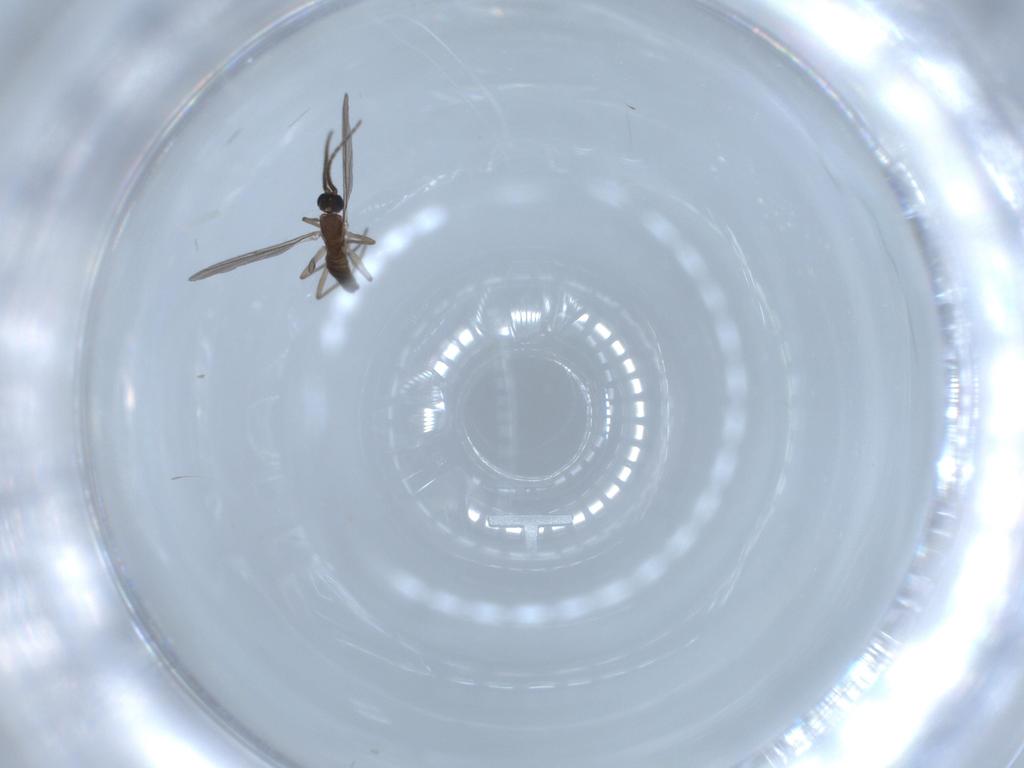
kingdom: Animalia
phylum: Arthropoda
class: Insecta
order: Diptera
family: Sciaridae
